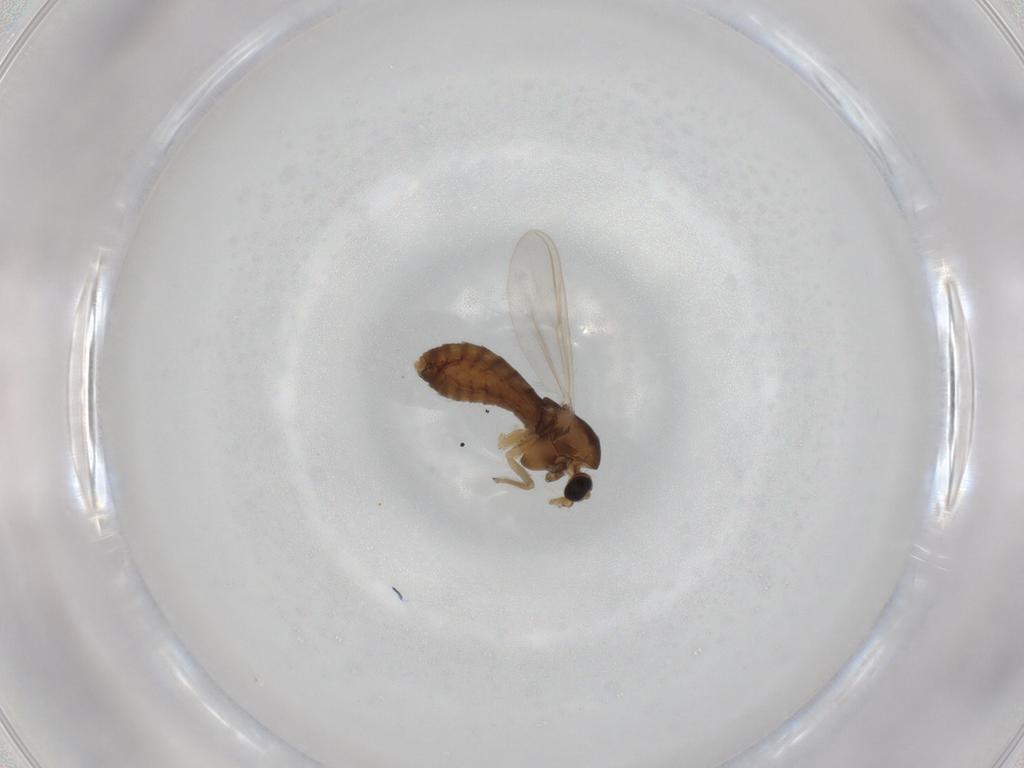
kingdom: Animalia
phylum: Arthropoda
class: Insecta
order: Diptera
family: Chironomidae
